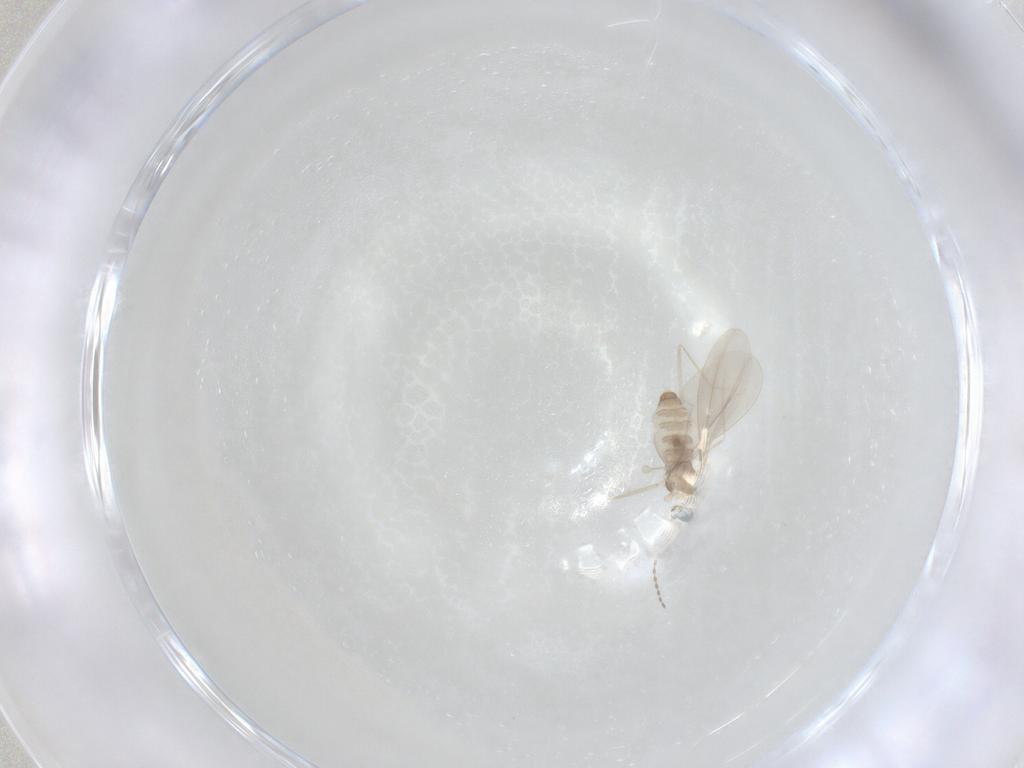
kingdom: Animalia
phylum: Arthropoda
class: Insecta
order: Diptera
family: Cecidomyiidae
